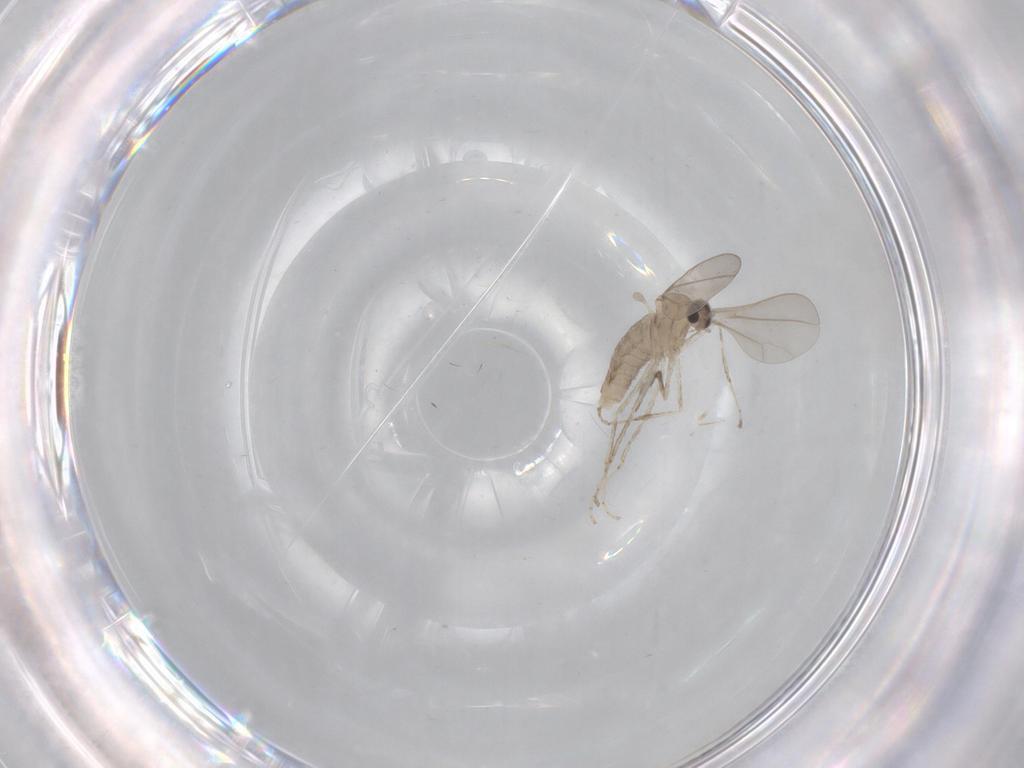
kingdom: Animalia
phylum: Arthropoda
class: Insecta
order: Diptera
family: Cecidomyiidae
